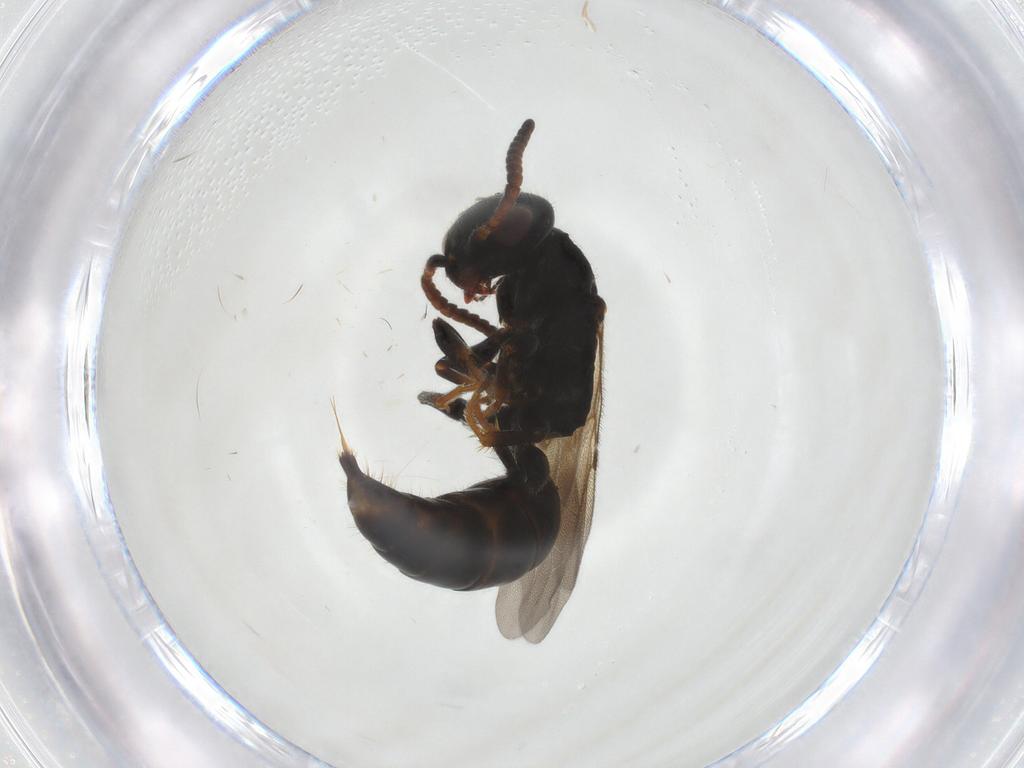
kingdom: Animalia
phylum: Arthropoda
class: Insecta
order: Hymenoptera
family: Bethylidae
